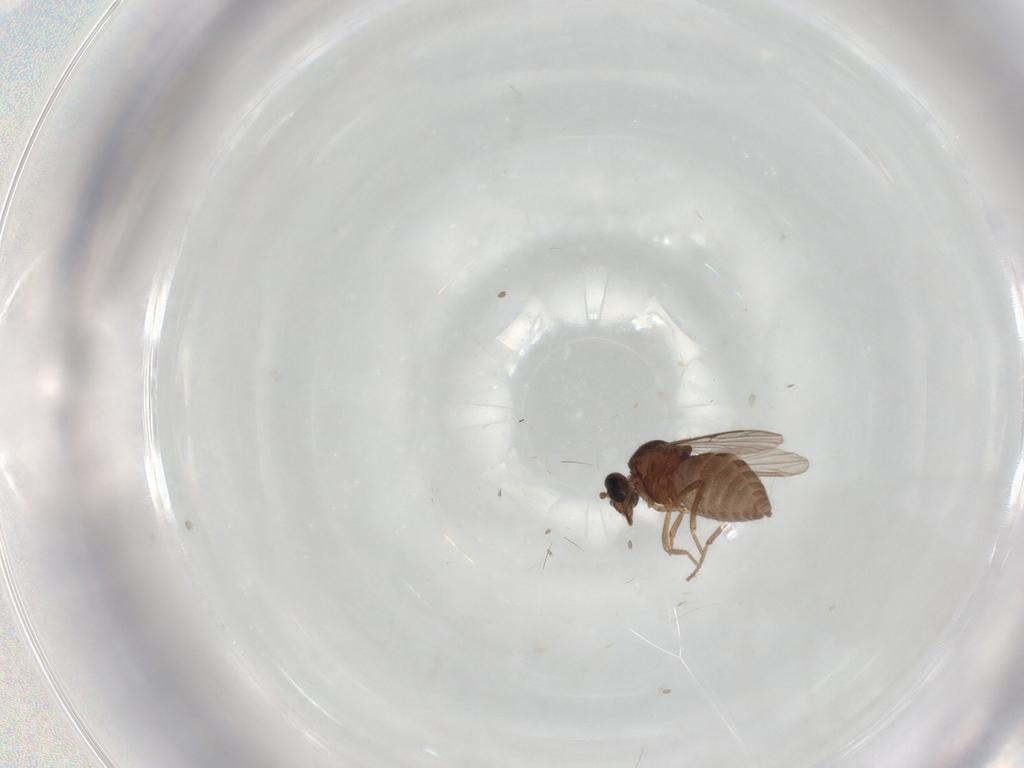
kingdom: Animalia
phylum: Arthropoda
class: Insecta
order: Diptera
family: Ceratopogonidae
